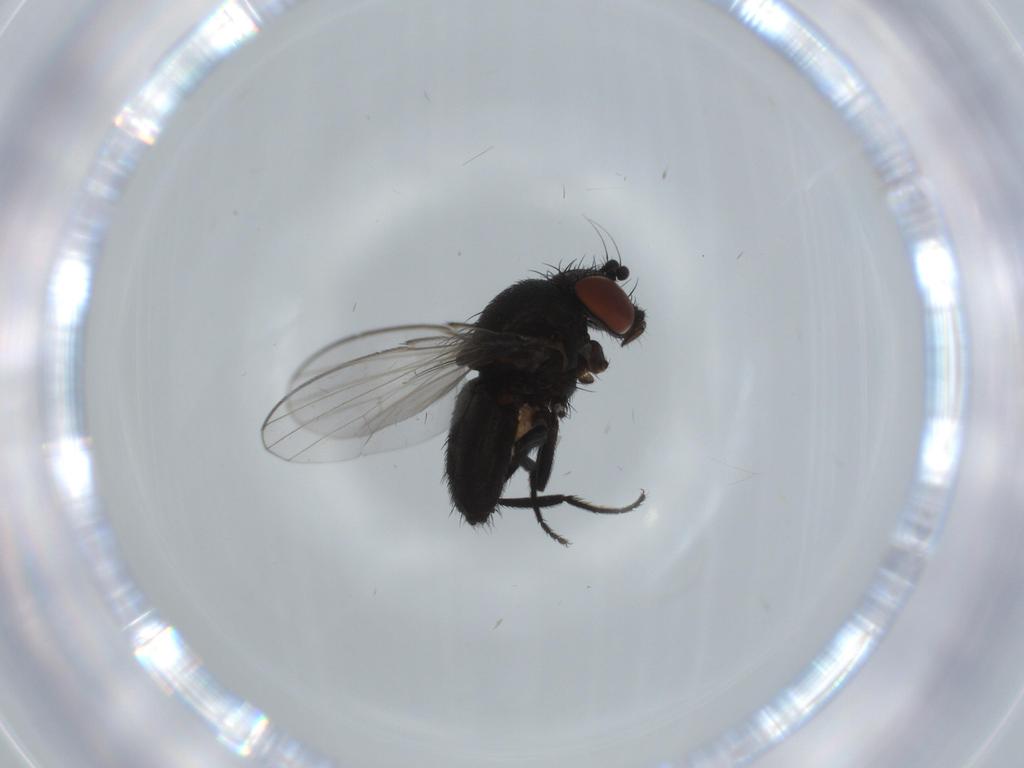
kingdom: Animalia
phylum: Arthropoda
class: Insecta
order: Diptera
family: Milichiidae
